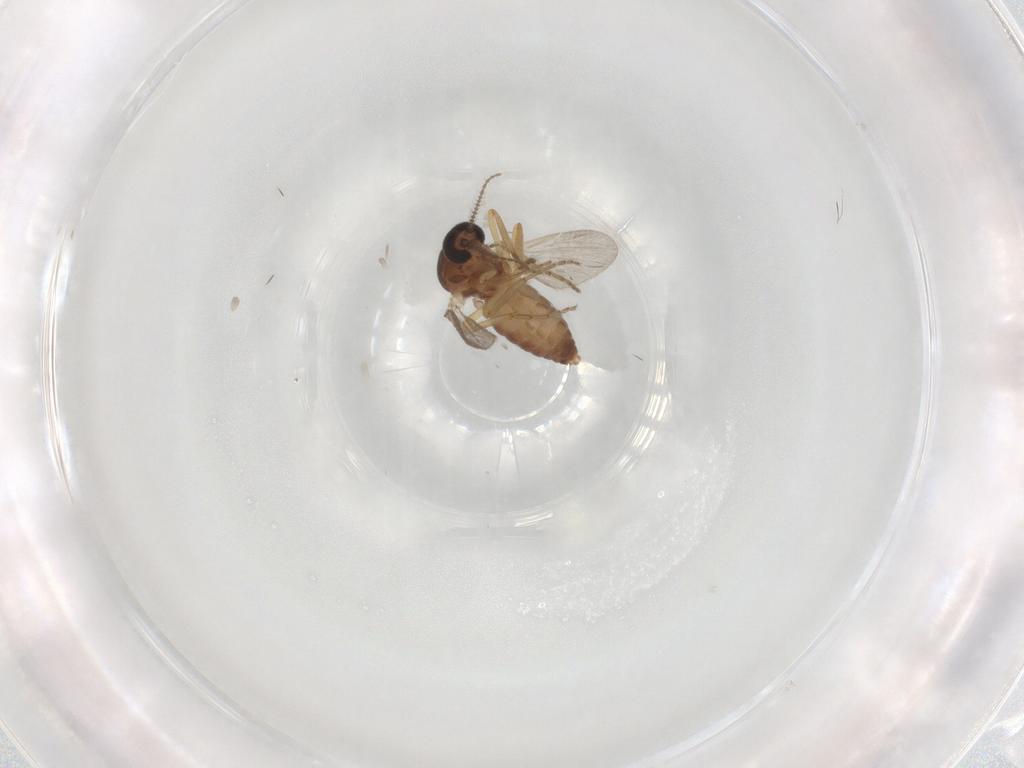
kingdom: Animalia
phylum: Arthropoda
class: Insecta
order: Diptera
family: Ceratopogonidae
